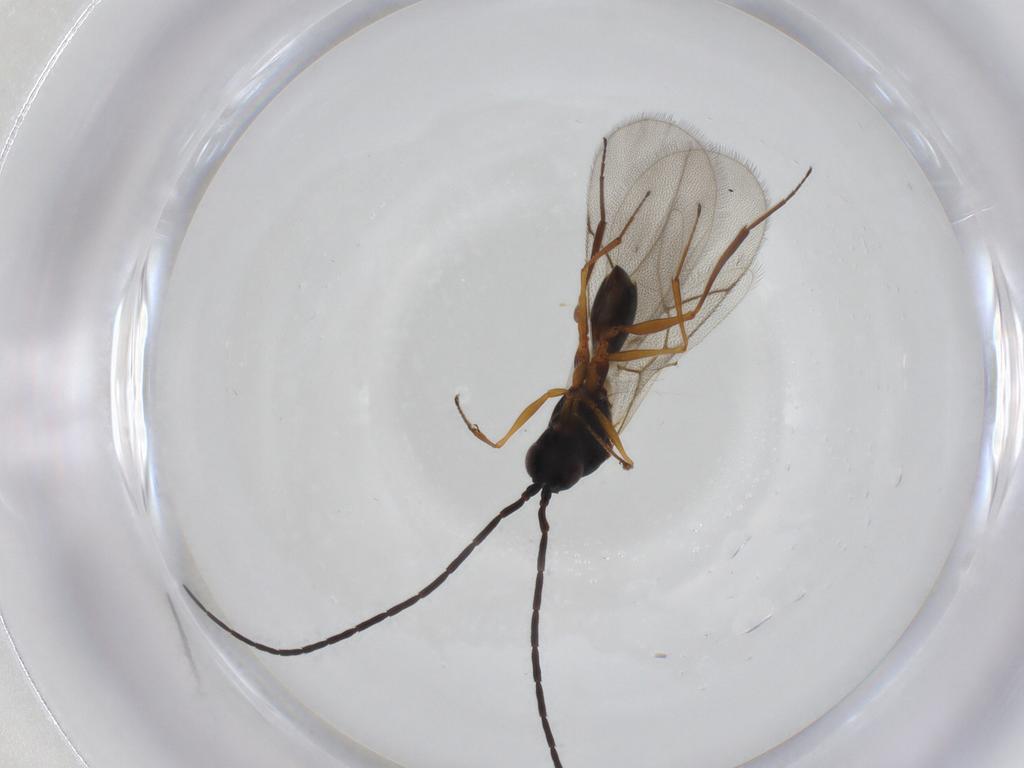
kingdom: Animalia
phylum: Arthropoda
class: Insecta
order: Hymenoptera
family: Figitidae
